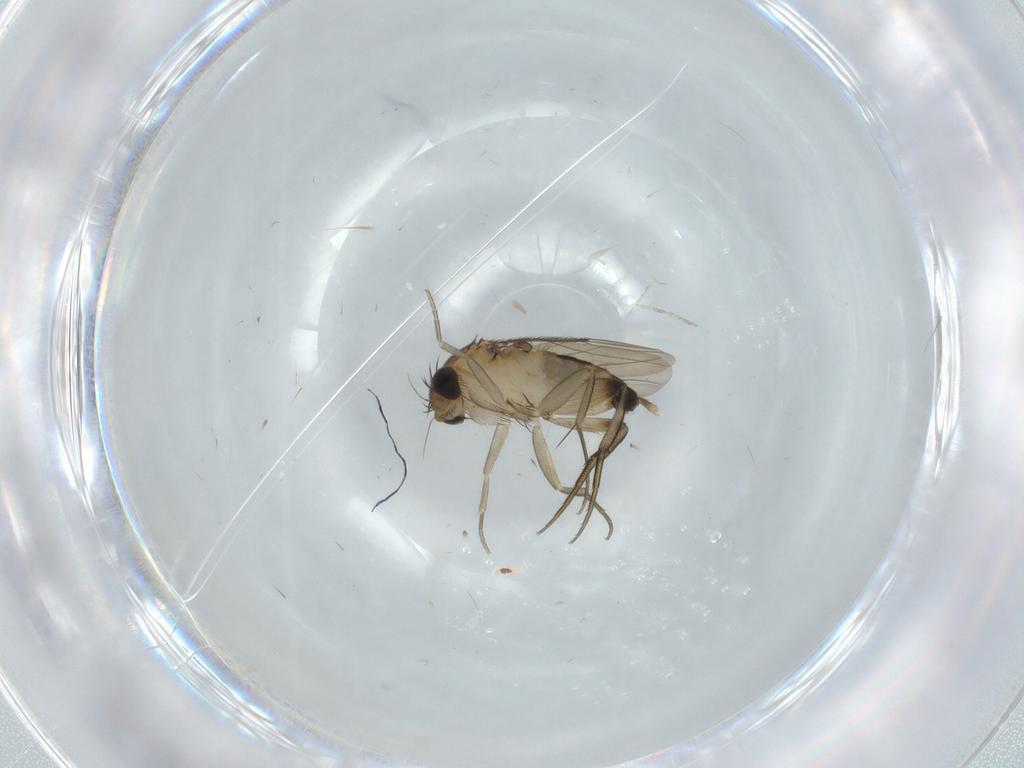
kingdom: Animalia
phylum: Arthropoda
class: Insecta
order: Diptera
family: Phoridae
